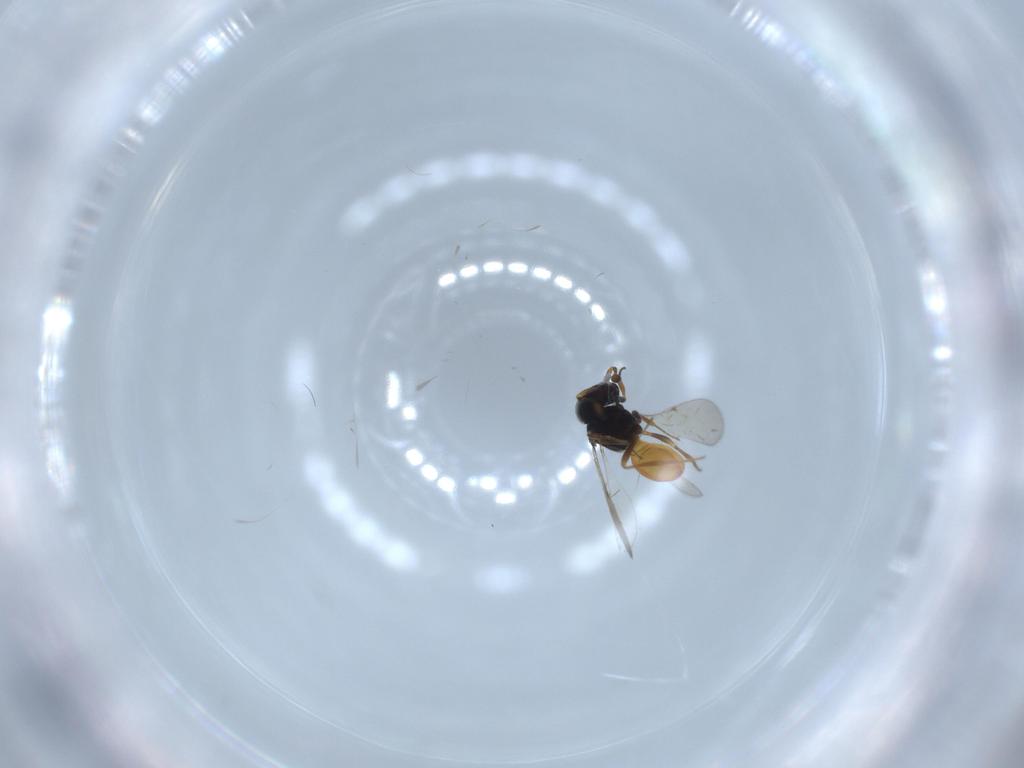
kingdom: Animalia
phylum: Arthropoda
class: Insecta
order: Hymenoptera
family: Scelionidae
